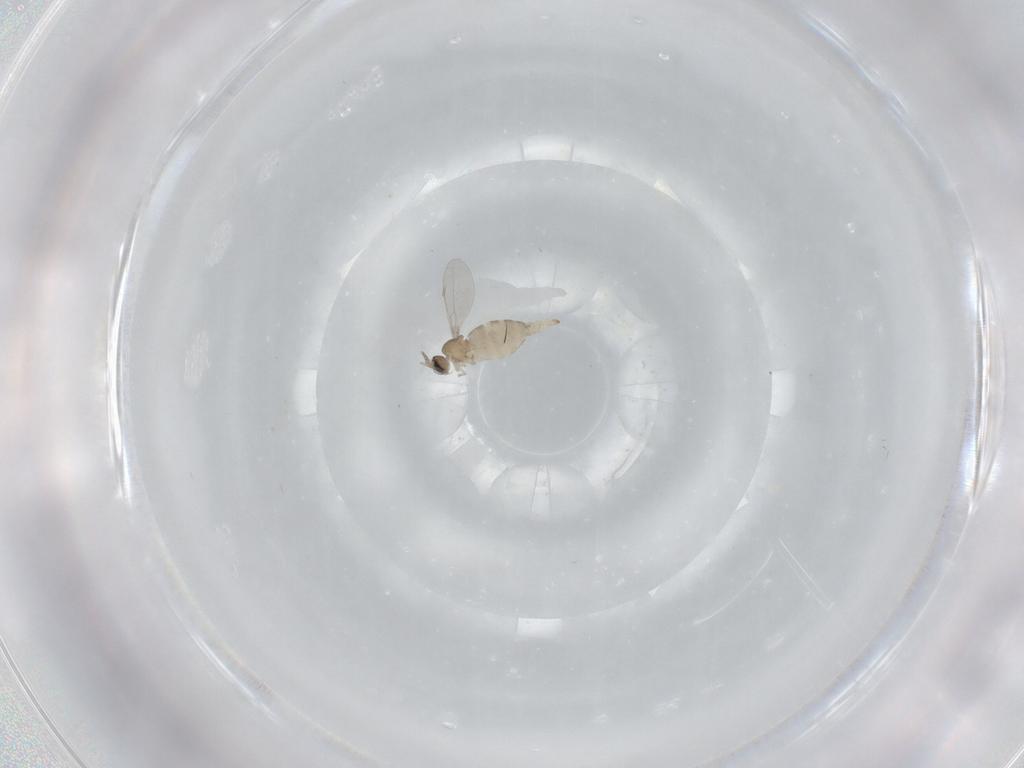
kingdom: Animalia
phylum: Arthropoda
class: Insecta
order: Diptera
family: Cecidomyiidae
